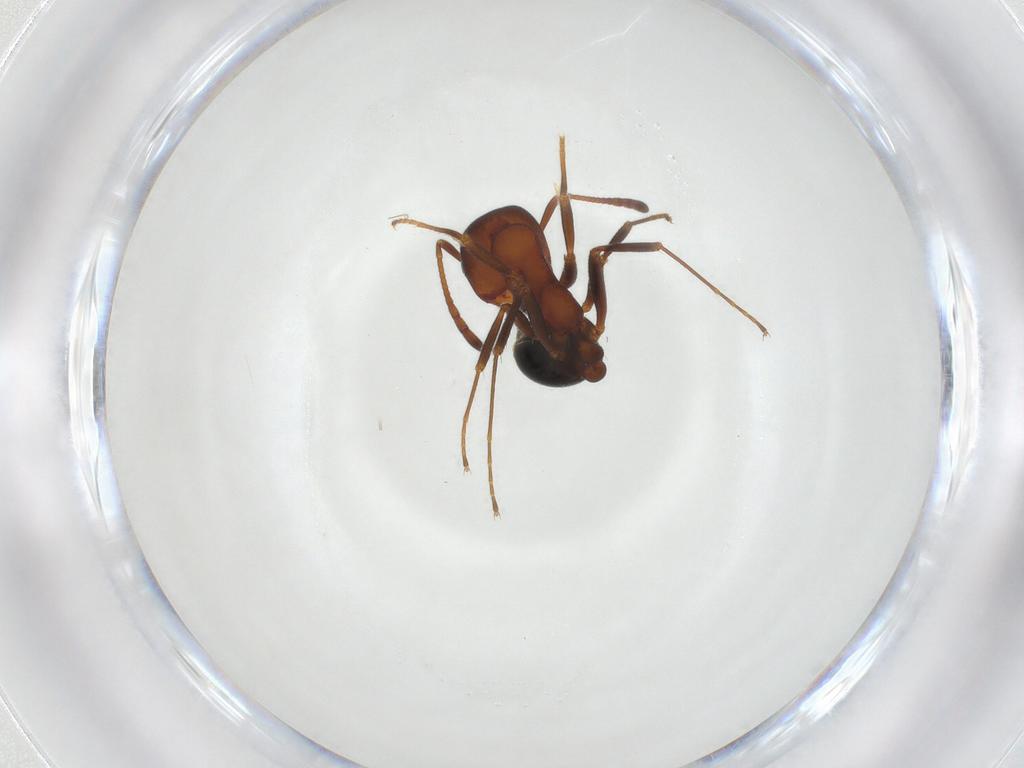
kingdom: Animalia
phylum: Arthropoda
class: Insecta
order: Hymenoptera
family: Formicidae
